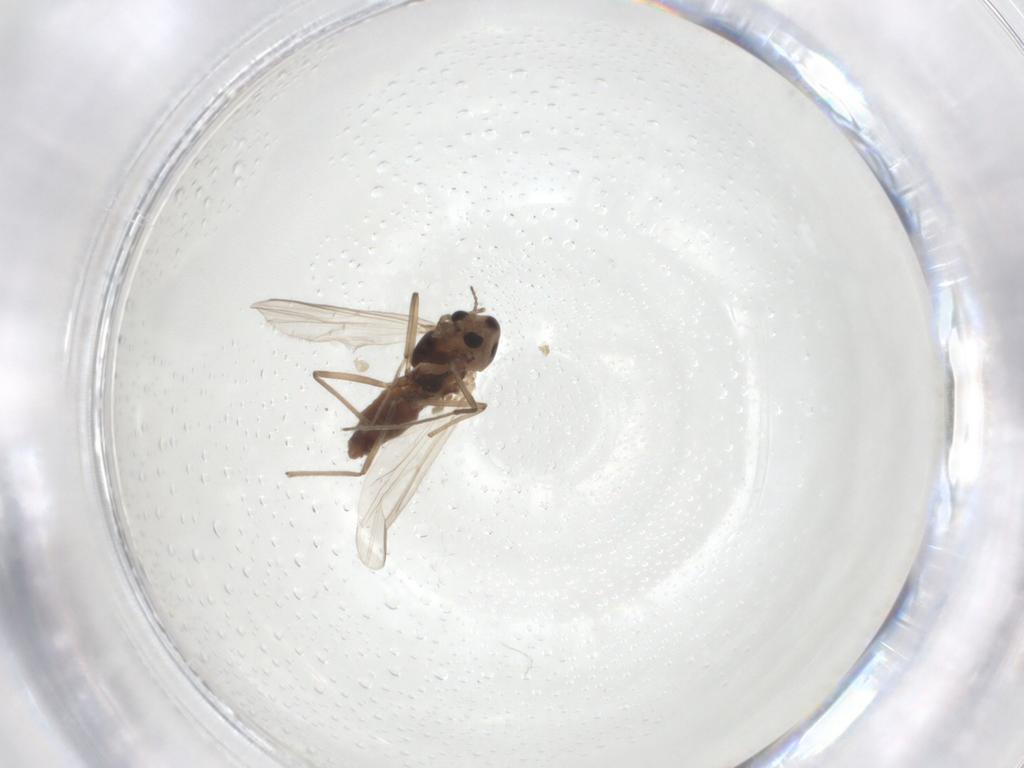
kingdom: Animalia
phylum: Arthropoda
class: Insecta
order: Diptera
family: Chironomidae
